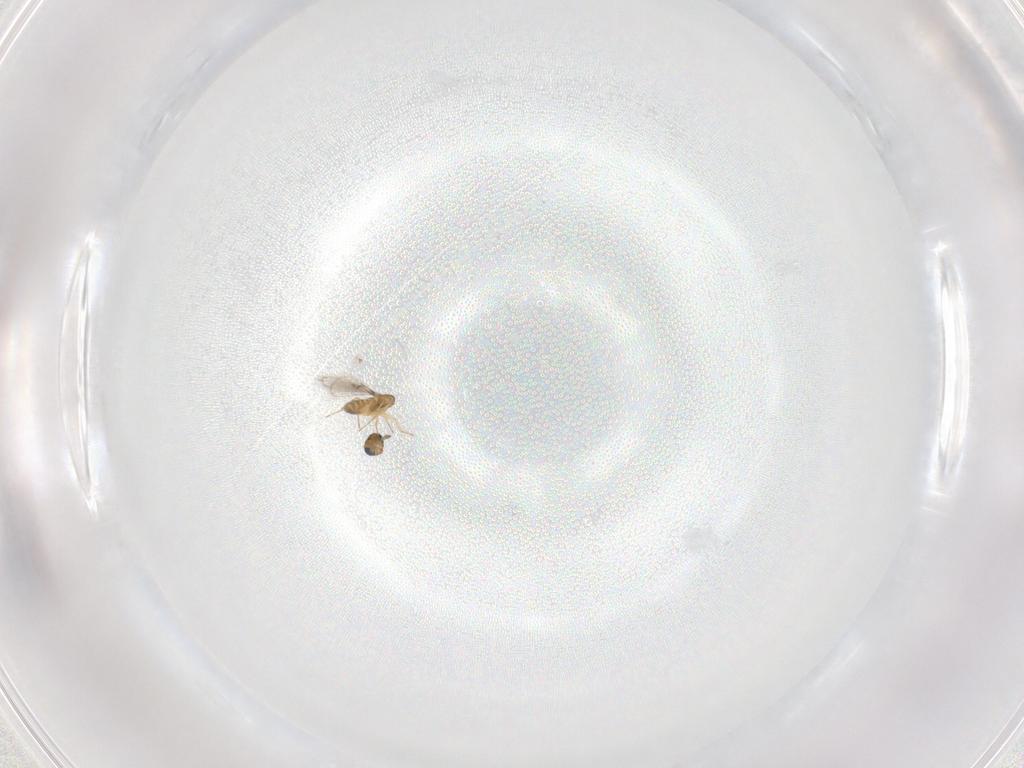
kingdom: Animalia
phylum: Arthropoda
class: Insecta
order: Hymenoptera
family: Trichogrammatidae
